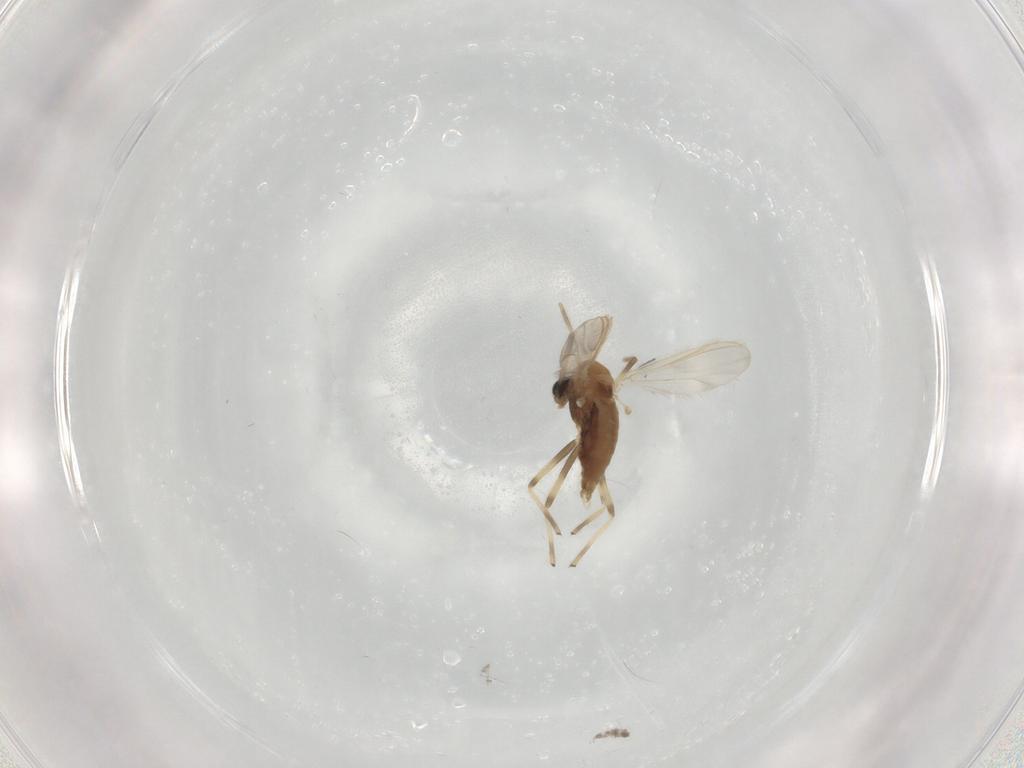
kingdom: Animalia
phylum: Arthropoda
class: Insecta
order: Diptera
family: Chironomidae
